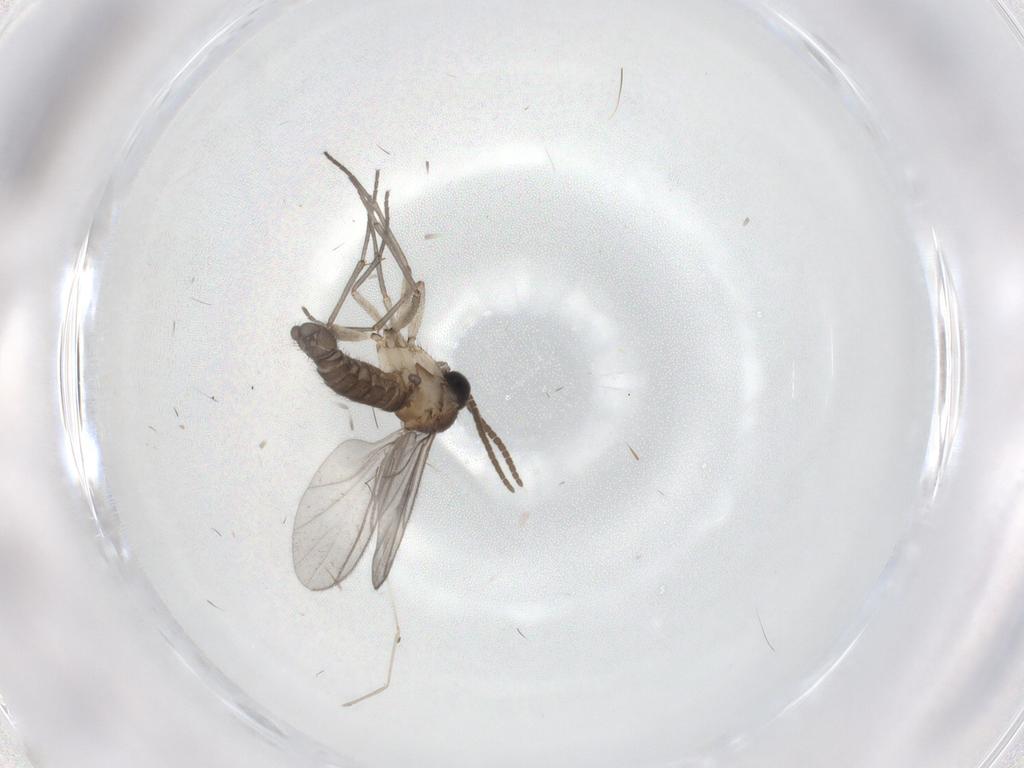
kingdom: Animalia
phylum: Arthropoda
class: Insecta
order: Diptera
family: Sciaridae
